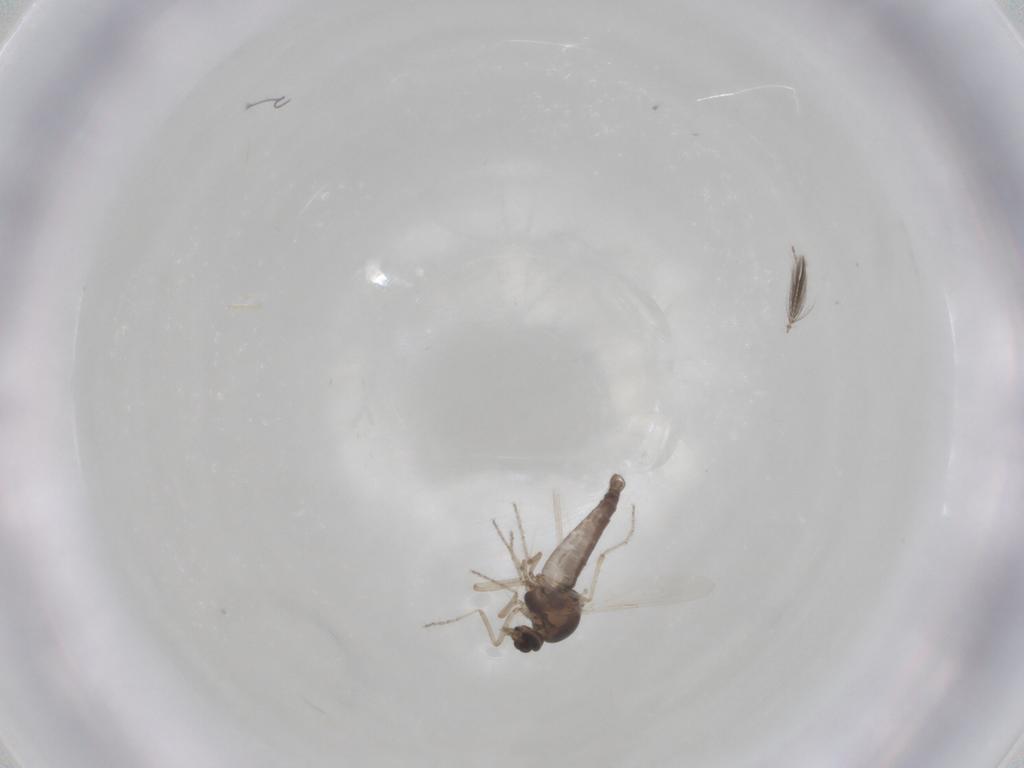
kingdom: Animalia
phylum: Arthropoda
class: Insecta
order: Diptera
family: Ceratopogonidae
